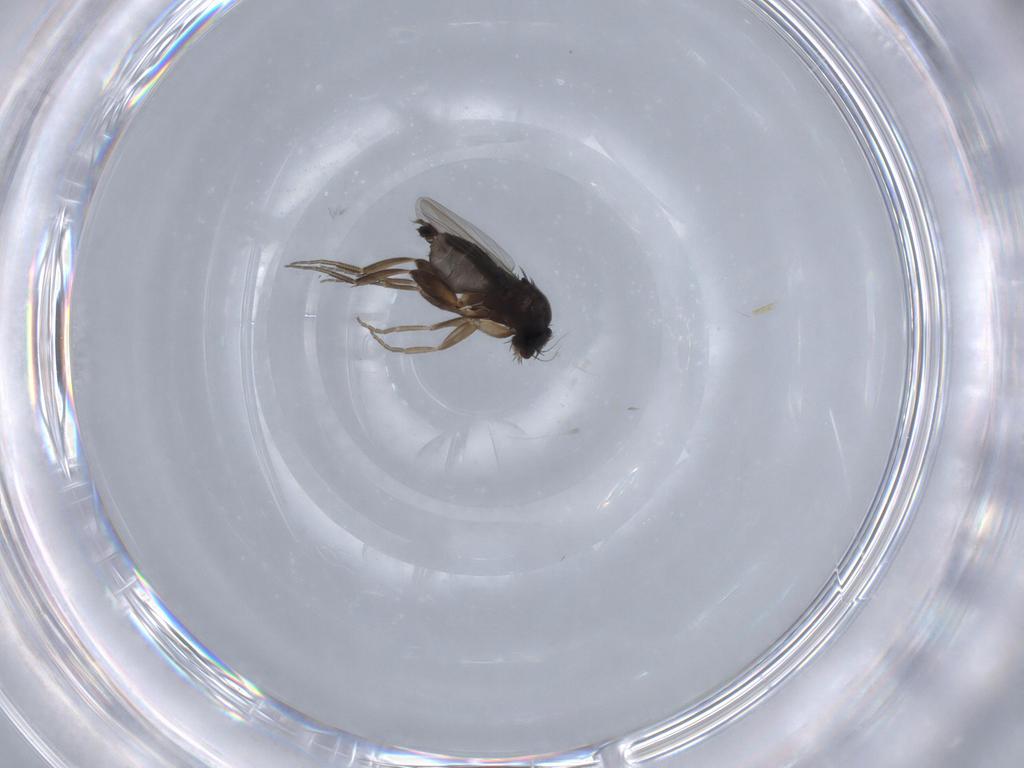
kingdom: Animalia
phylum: Arthropoda
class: Insecta
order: Diptera
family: Phoridae
